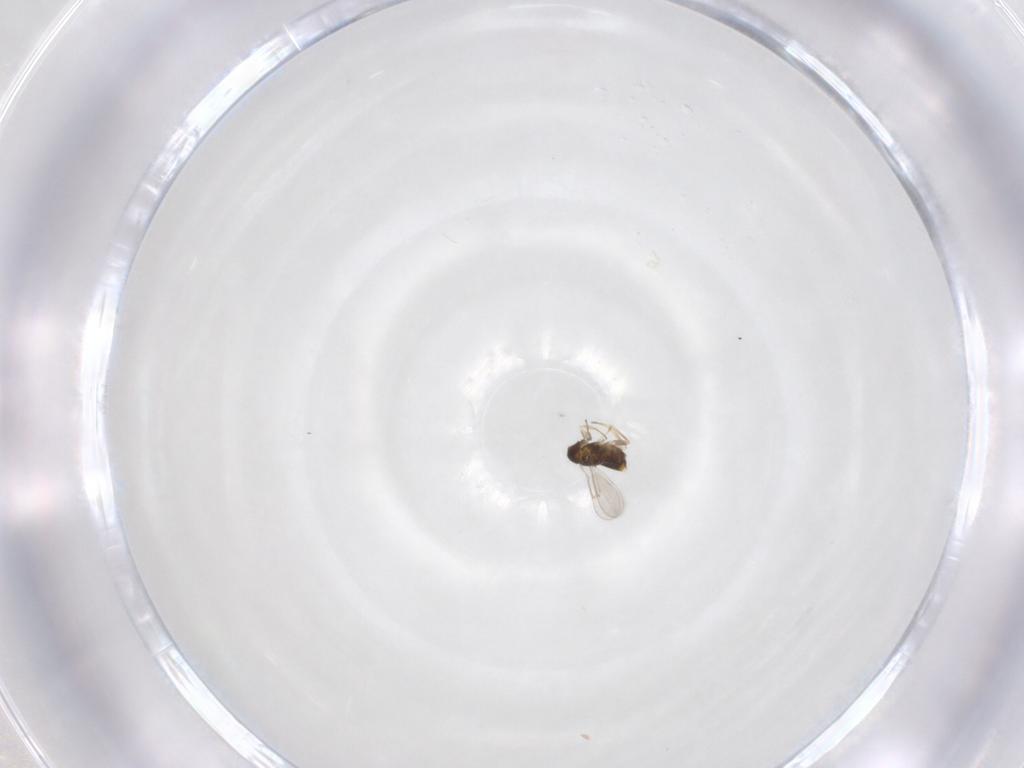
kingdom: Animalia
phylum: Arthropoda
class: Insecta
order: Hymenoptera
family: Aphelinidae
